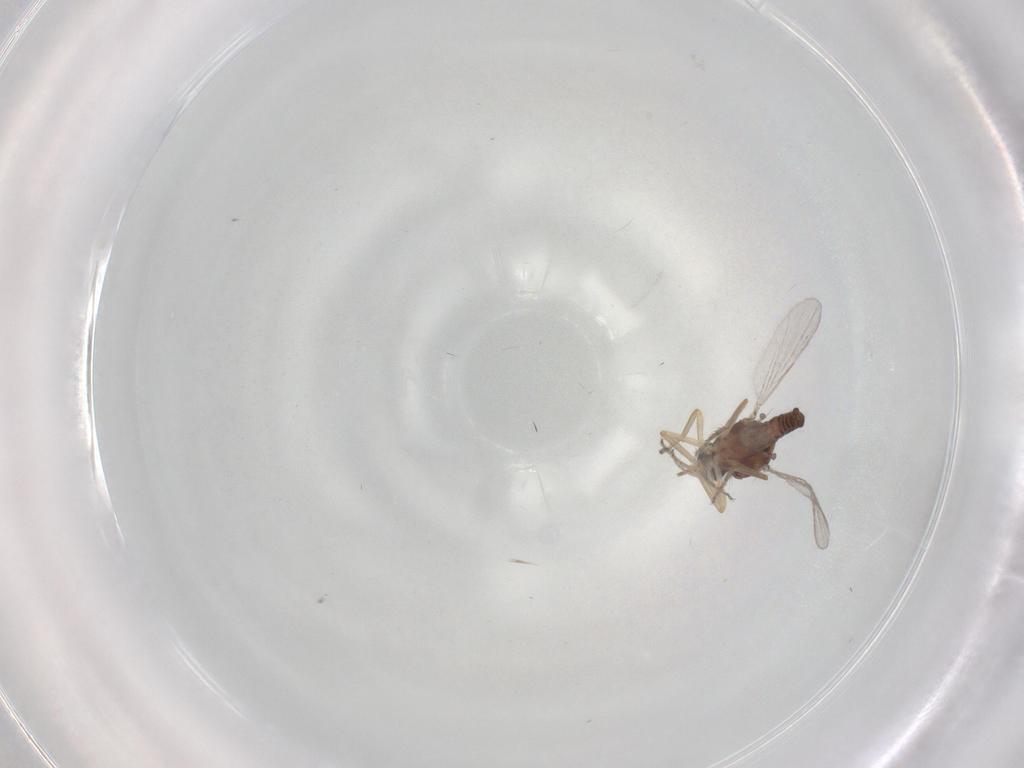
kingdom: Animalia
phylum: Arthropoda
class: Insecta
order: Diptera
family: Ceratopogonidae
